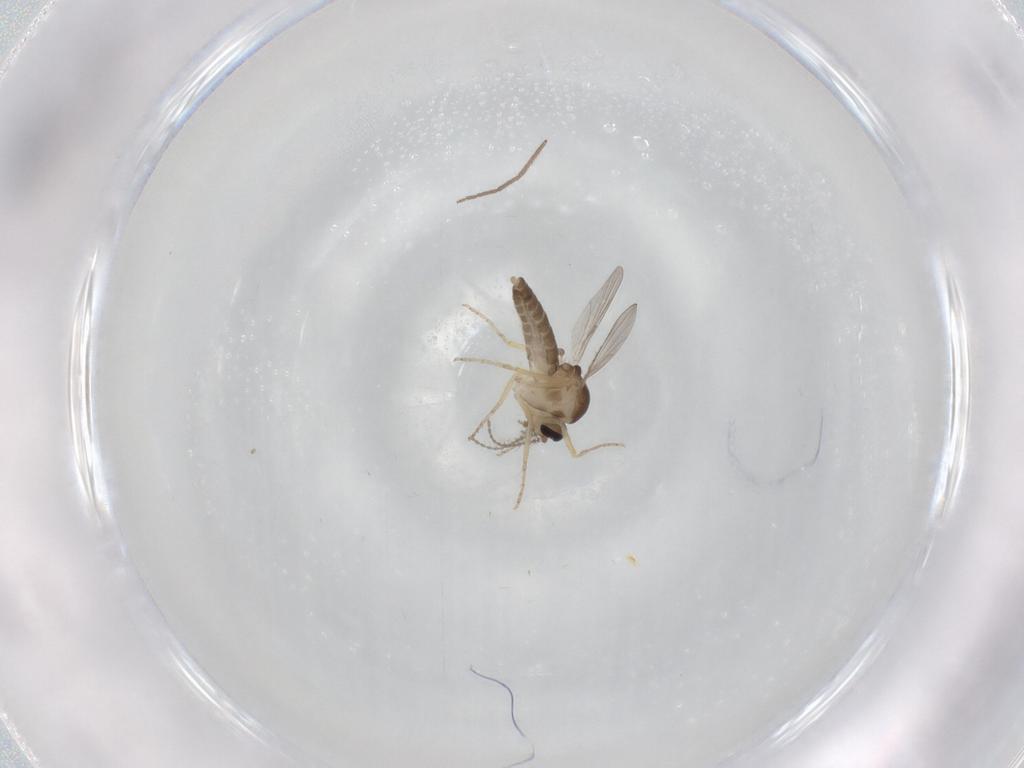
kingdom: Animalia
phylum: Arthropoda
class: Insecta
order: Diptera
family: Ceratopogonidae
